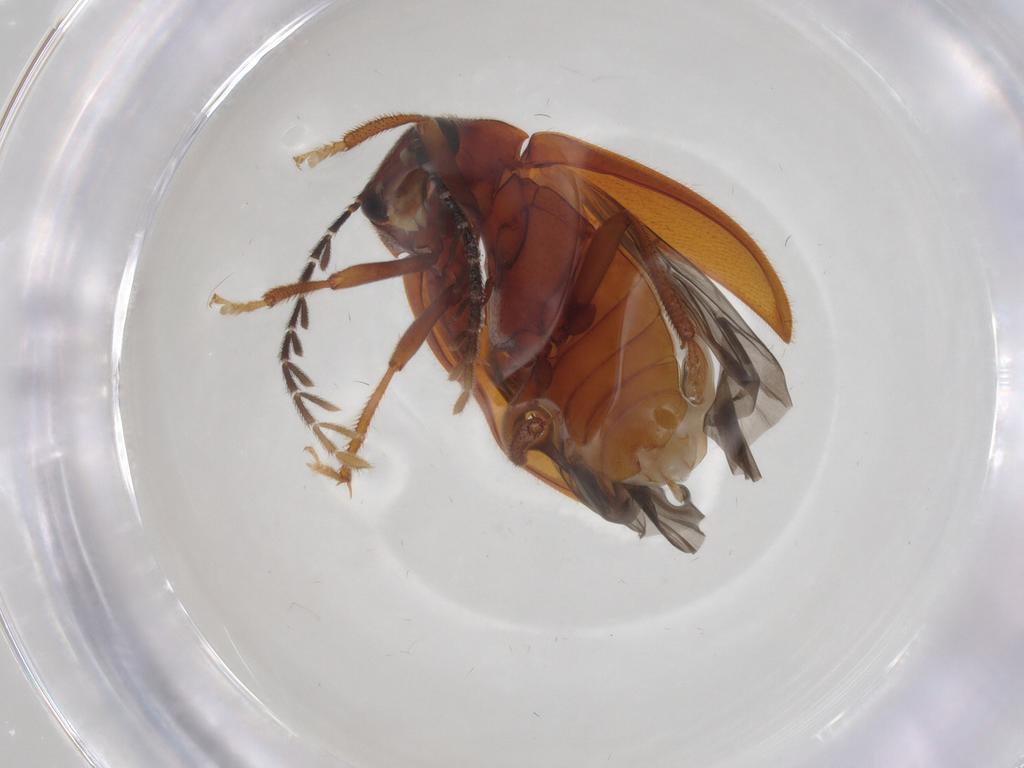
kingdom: Animalia
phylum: Arthropoda
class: Insecta
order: Coleoptera
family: Ptilodactylidae
